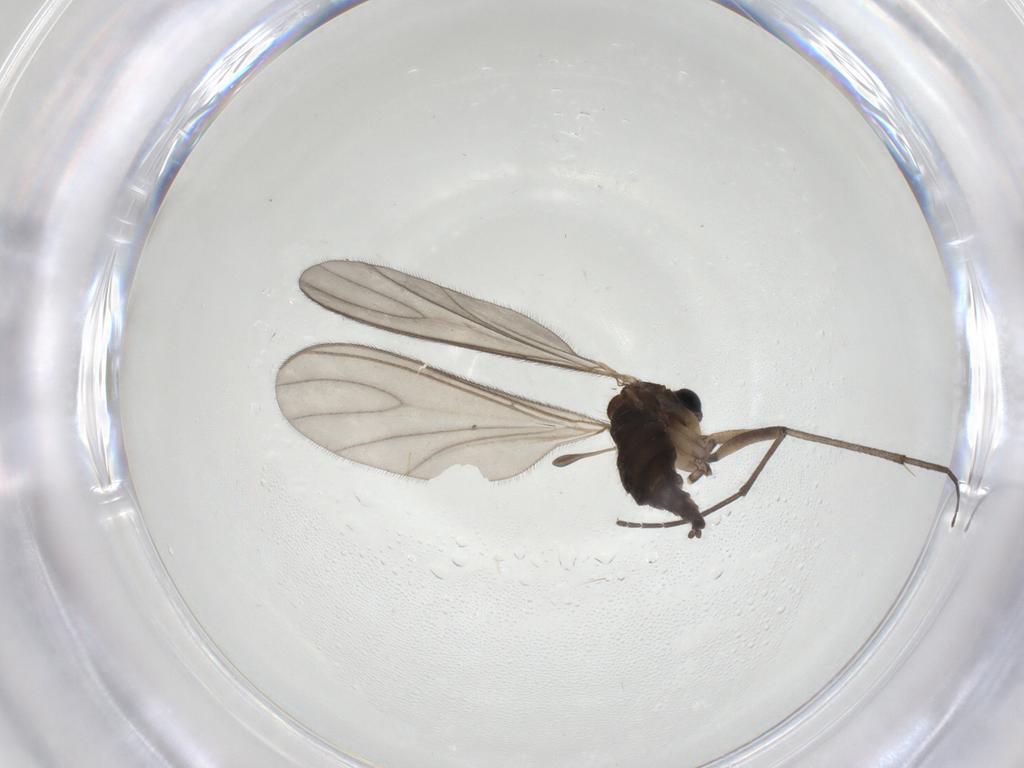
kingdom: Animalia
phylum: Arthropoda
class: Insecta
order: Diptera
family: Sciaridae
